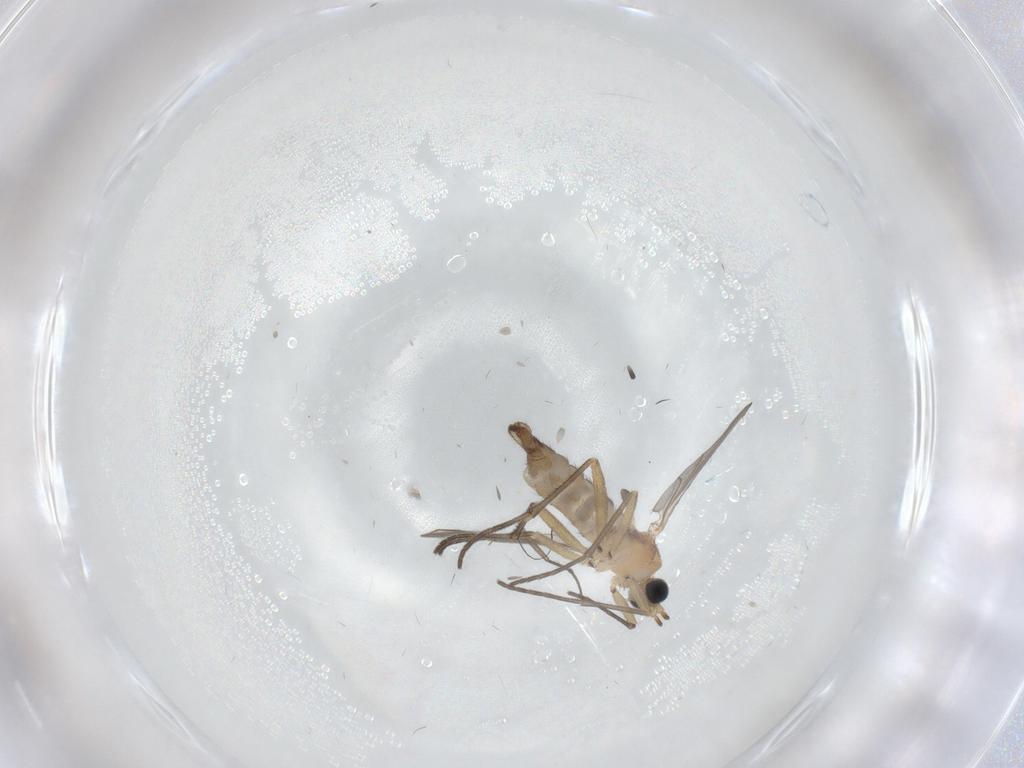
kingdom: Animalia
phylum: Arthropoda
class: Insecta
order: Diptera
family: Sciaridae
